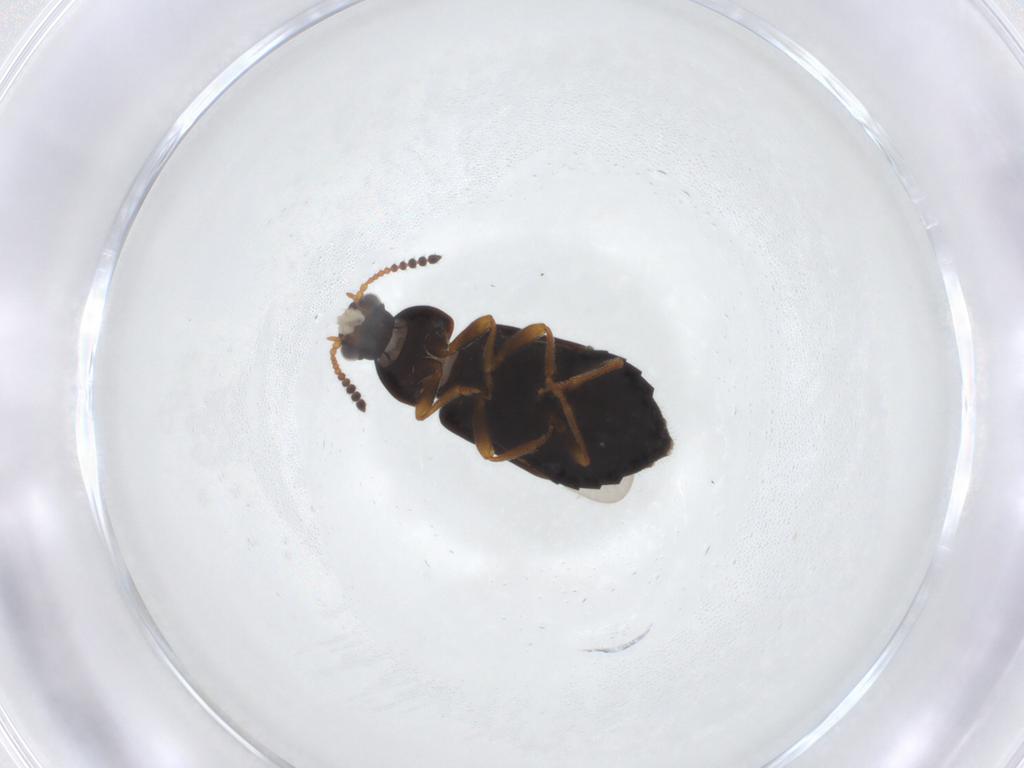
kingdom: Animalia
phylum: Arthropoda
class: Insecta
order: Coleoptera
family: Staphylinidae
